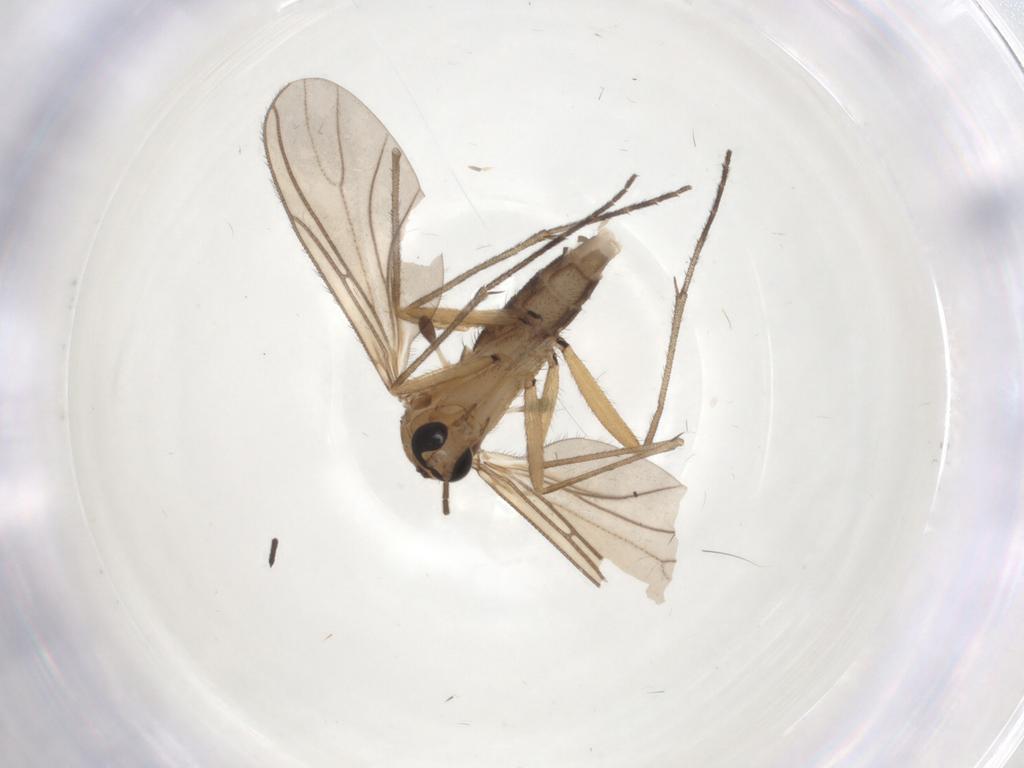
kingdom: Animalia
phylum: Arthropoda
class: Insecta
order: Diptera
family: Sciaridae
